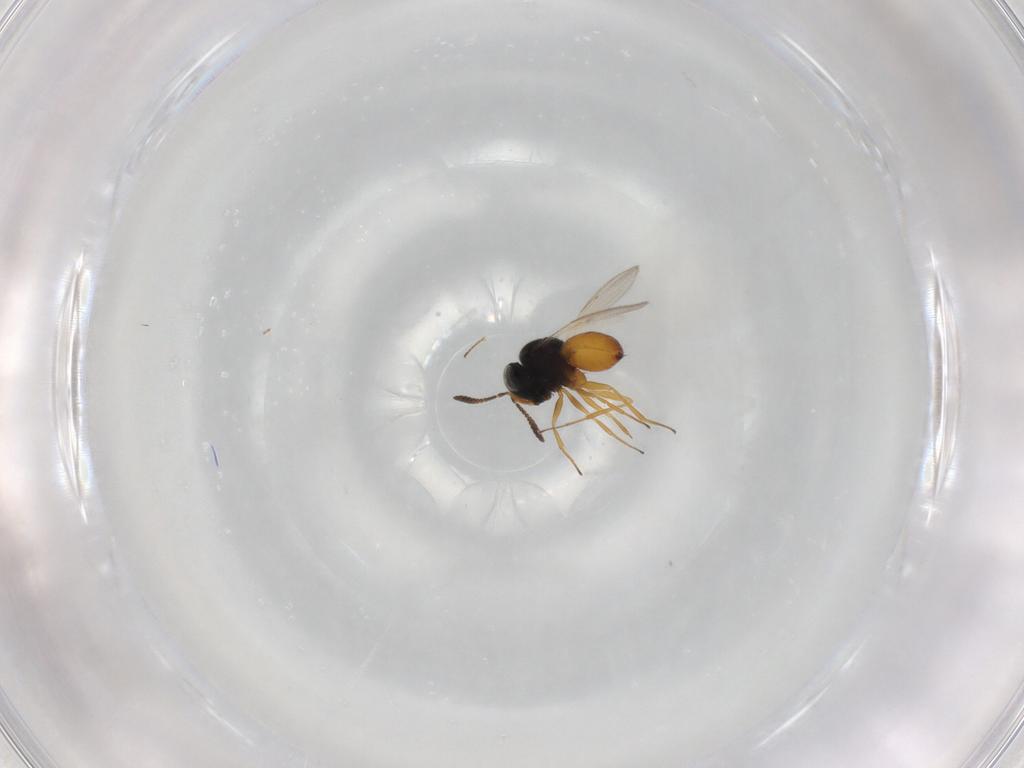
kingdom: Animalia
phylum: Arthropoda
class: Insecta
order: Hymenoptera
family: Scelionidae
